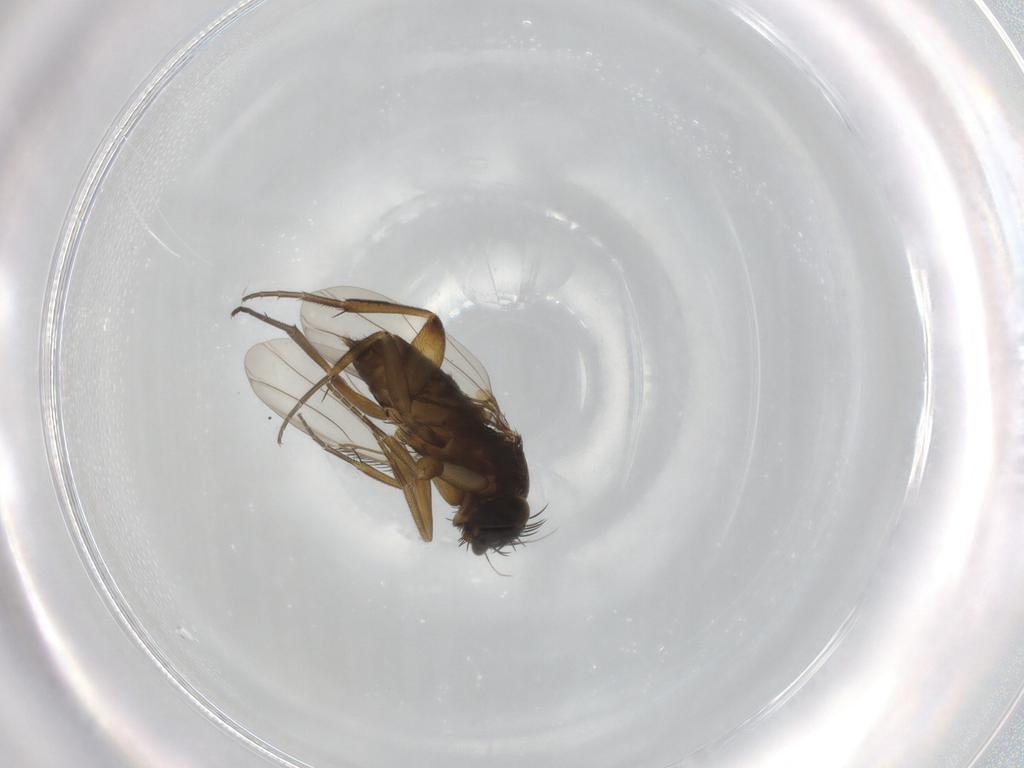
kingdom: Animalia
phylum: Arthropoda
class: Insecta
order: Diptera
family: Phoridae
